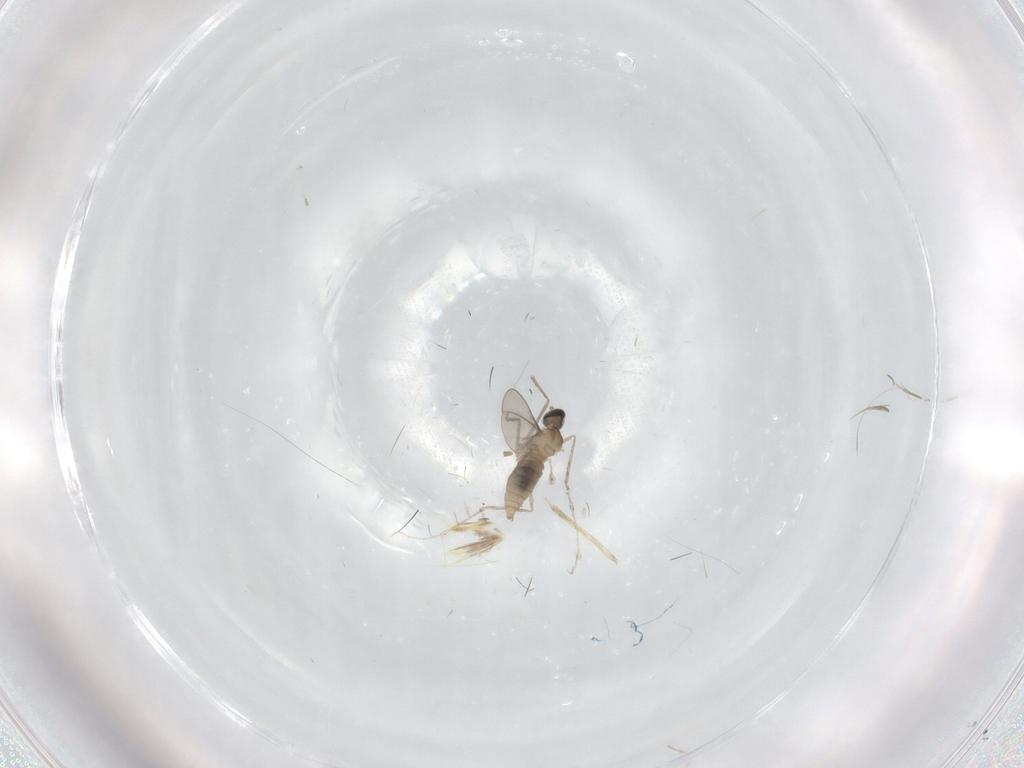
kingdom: Animalia
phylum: Arthropoda
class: Insecta
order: Diptera
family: Cecidomyiidae
